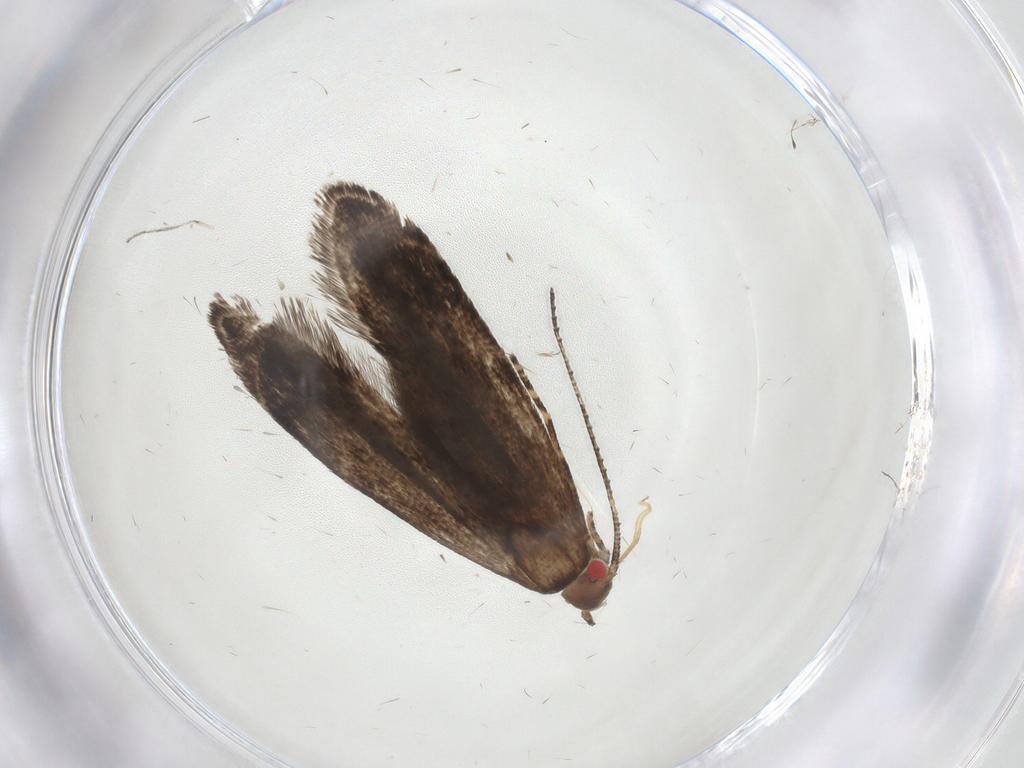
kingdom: Animalia
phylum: Arthropoda
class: Insecta
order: Lepidoptera
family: Gelechiidae
